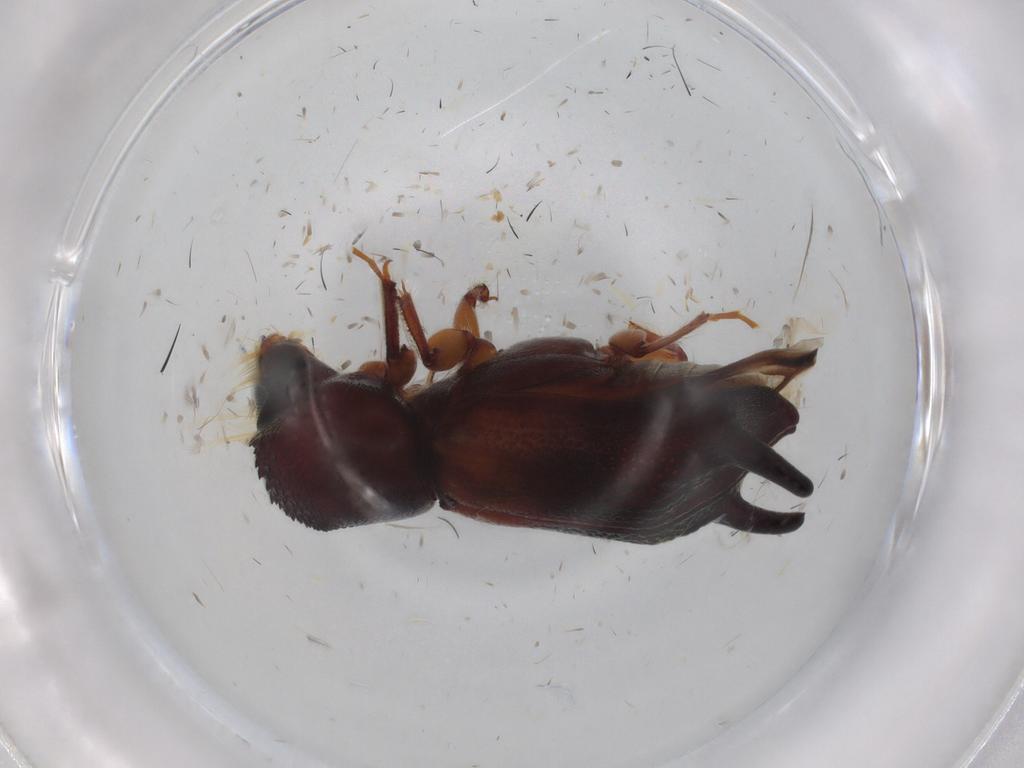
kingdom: Animalia
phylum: Arthropoda
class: Insecta
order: Coleoptera
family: Bostrichidae
